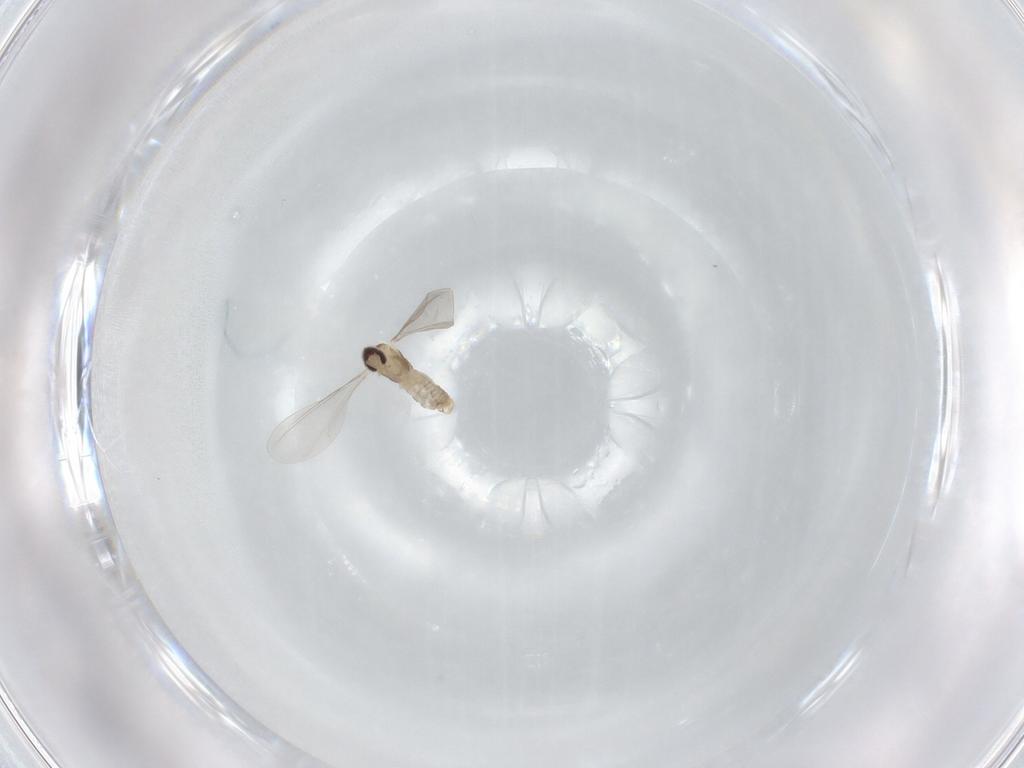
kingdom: Animalia
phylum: Arthropoda
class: Insecta
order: Diptera
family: Cecidomyiidae
